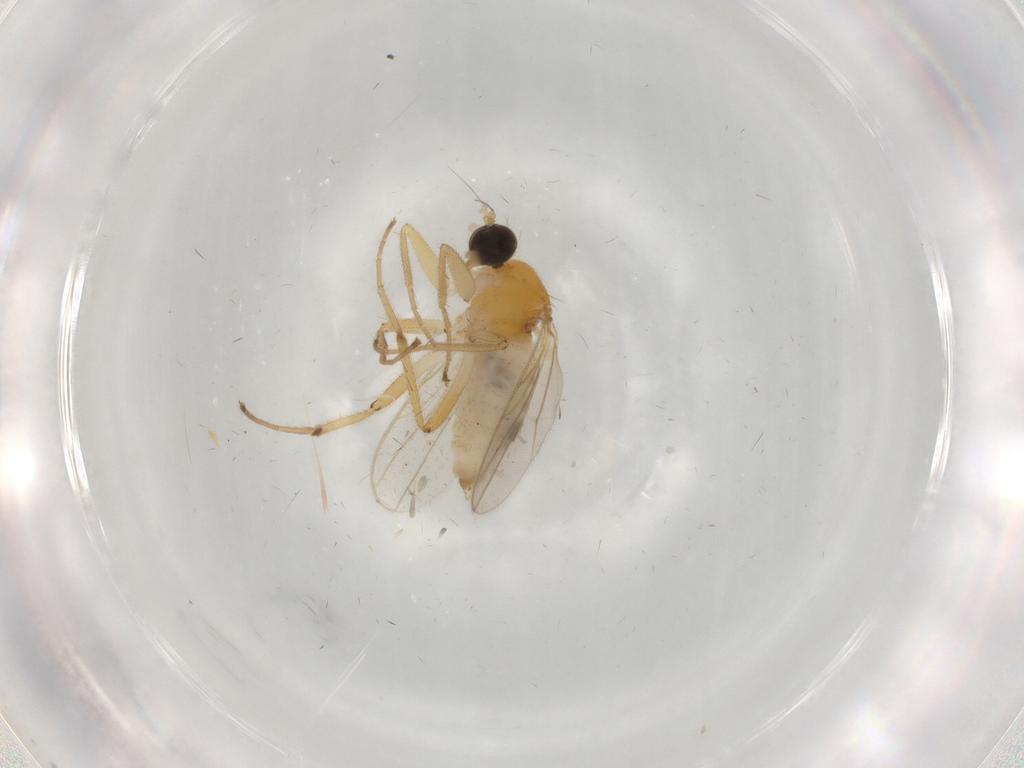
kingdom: Animalia
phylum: Arthropoda
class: Insecta
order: Diptera
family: Hybotidae
